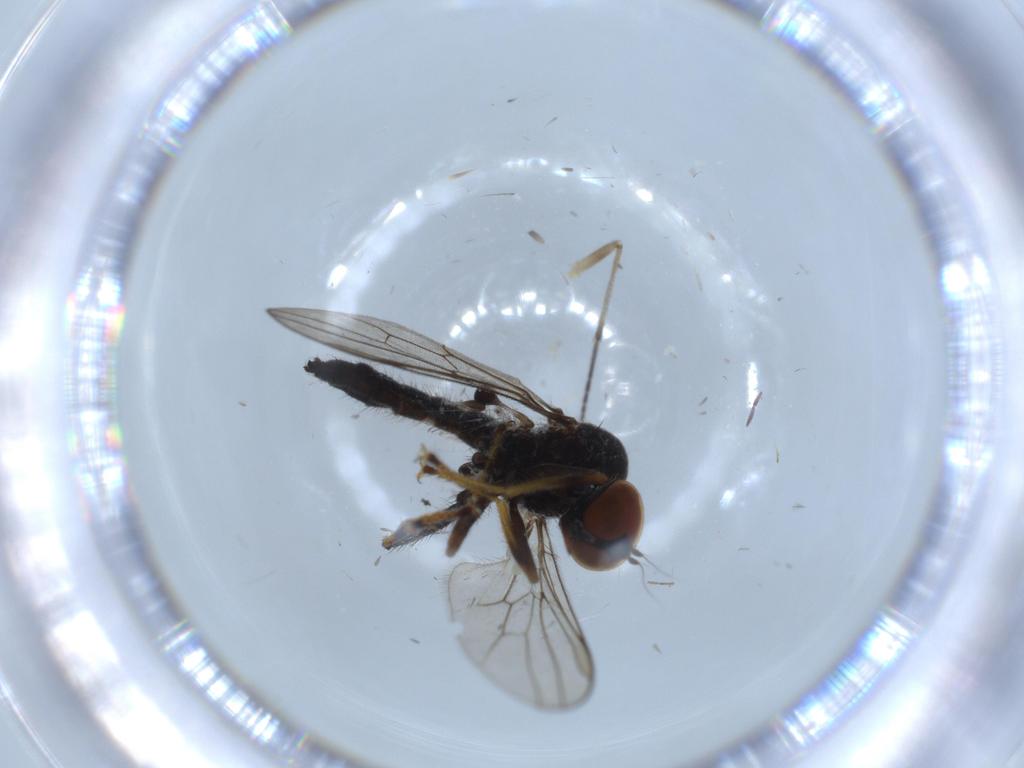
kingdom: Animalia
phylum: Arthropoda
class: Insecta
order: Diptera
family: Hybotidae
